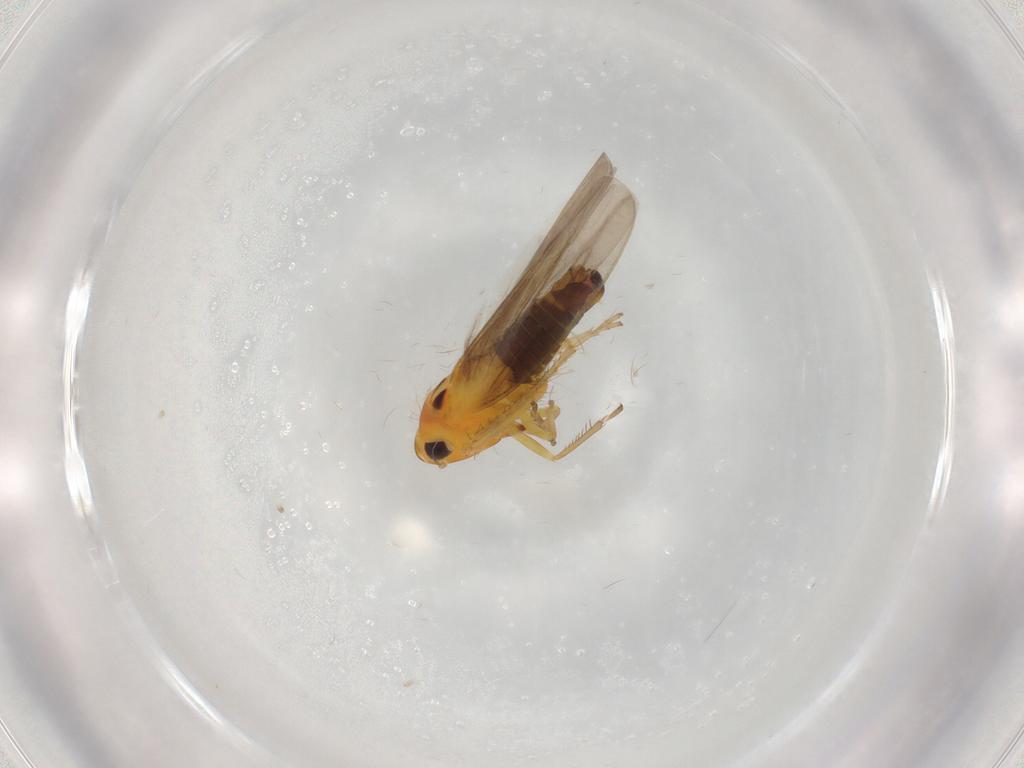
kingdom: Animalia
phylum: Arthropoda
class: Insecta
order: Hemiptera
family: Cicadellidae
